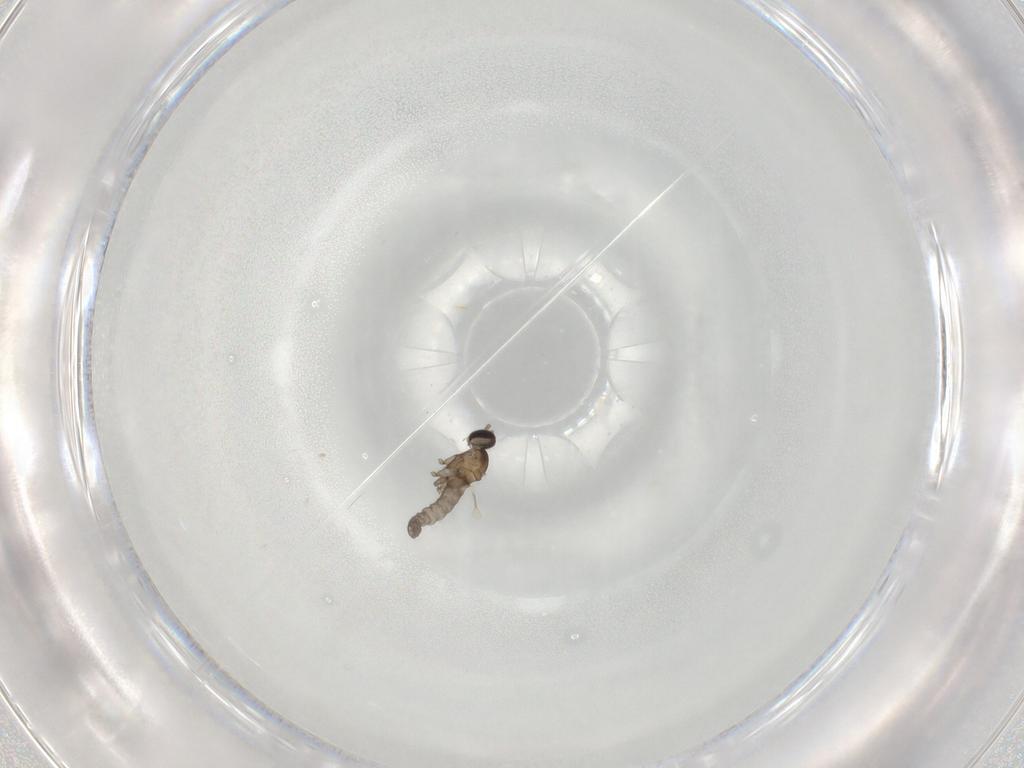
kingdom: Animalia
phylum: Arthropoda
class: Insecta
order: Diptera
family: Cecidomyiidae
